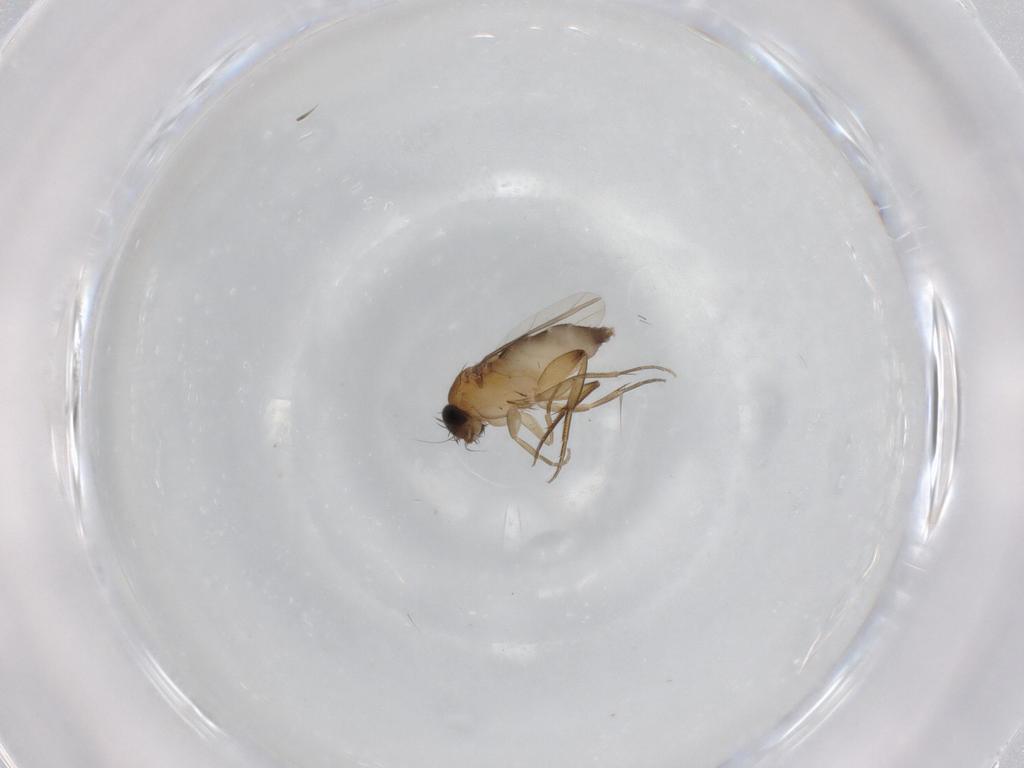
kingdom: Animalia
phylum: Arthropoda
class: Insecta
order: Diptera
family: Phoridae
